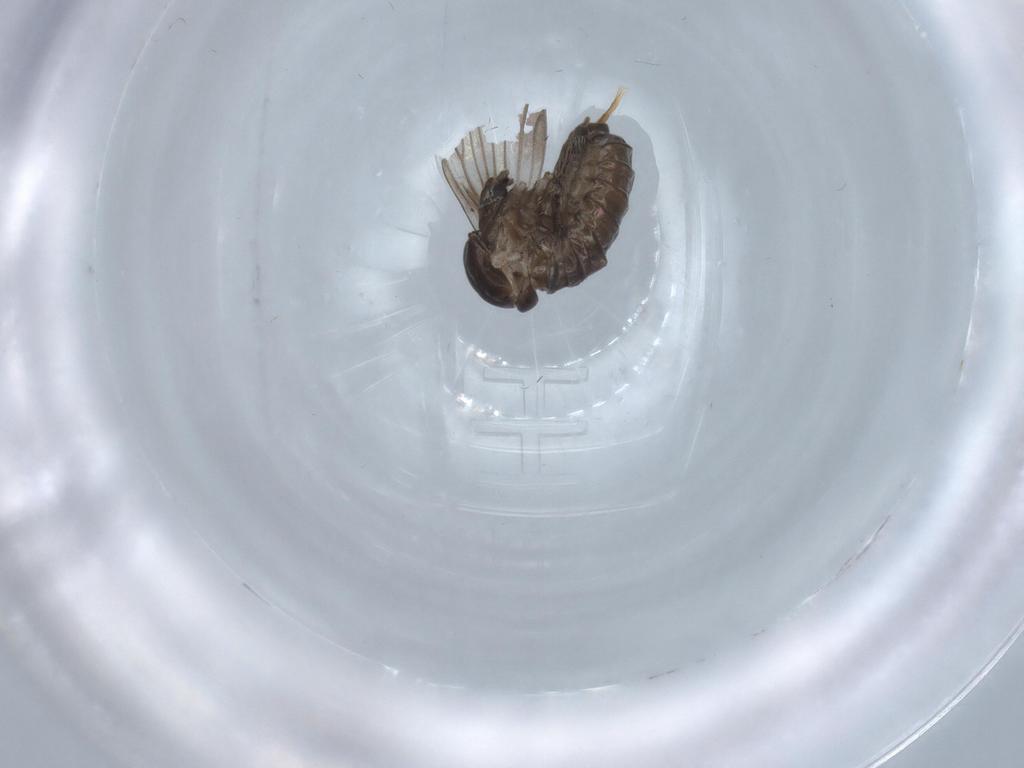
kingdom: Animalia
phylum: Arthropoda
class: Insecta
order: Diptera
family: Psychodidae
